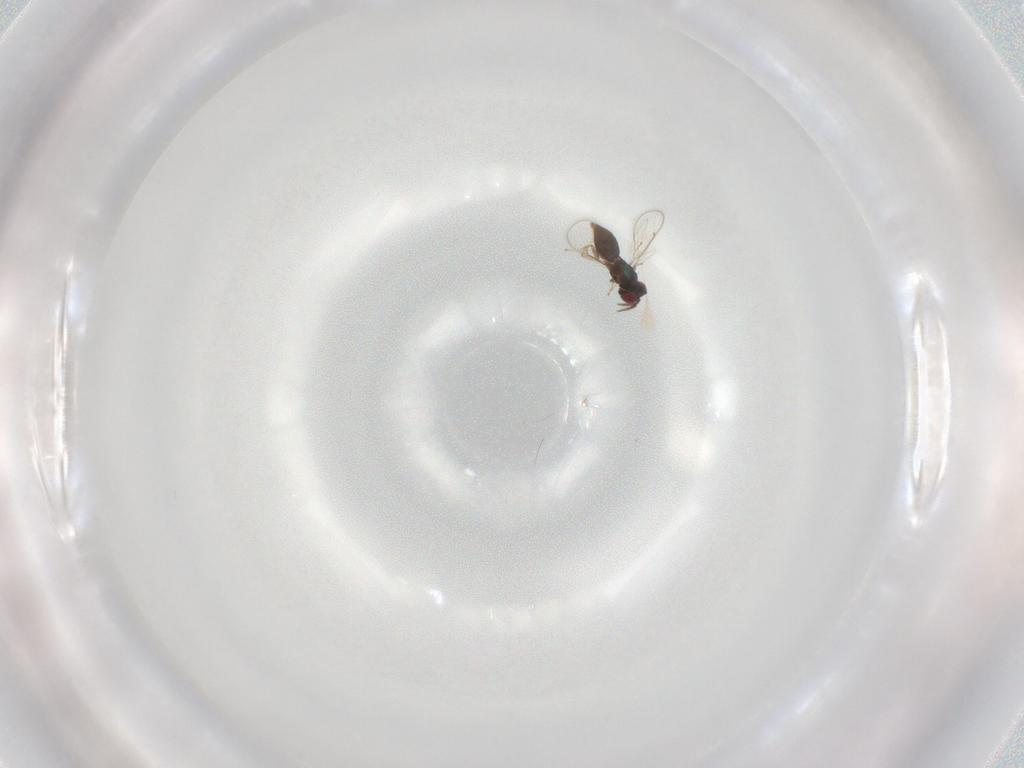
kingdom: Animalia
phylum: Arthropoda
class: Insecta
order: Hymenoptera
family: Eulophidae
